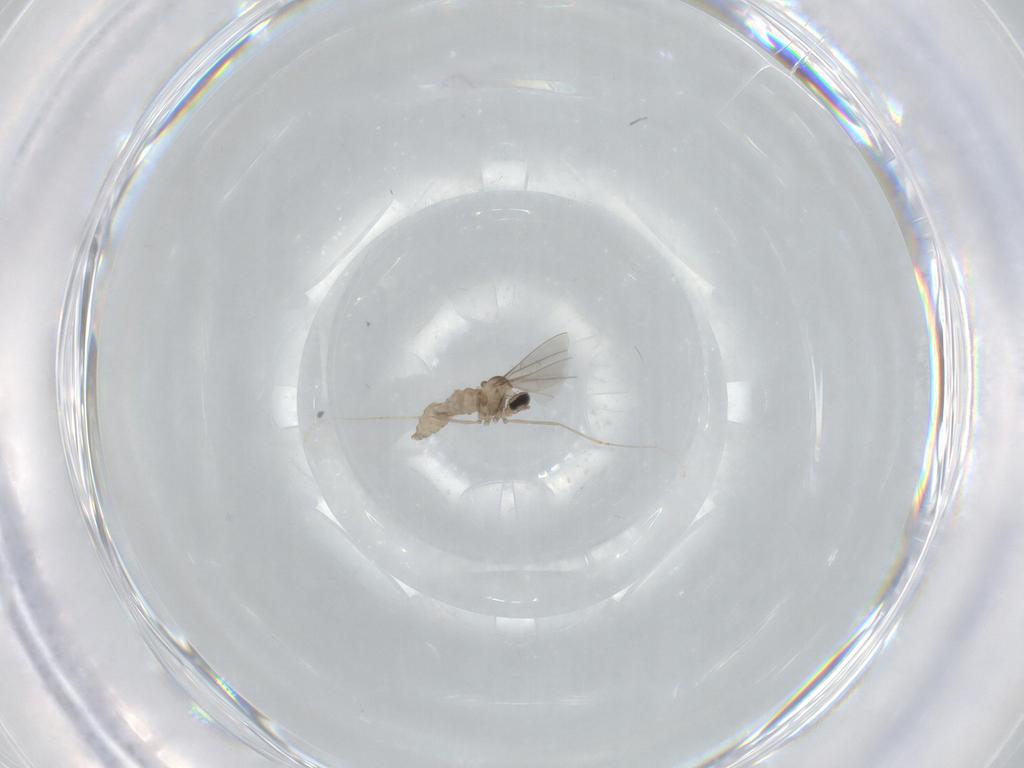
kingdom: Animalia
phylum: Arthropoda
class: Insecta
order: Diptera
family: Cecidomyiidae
